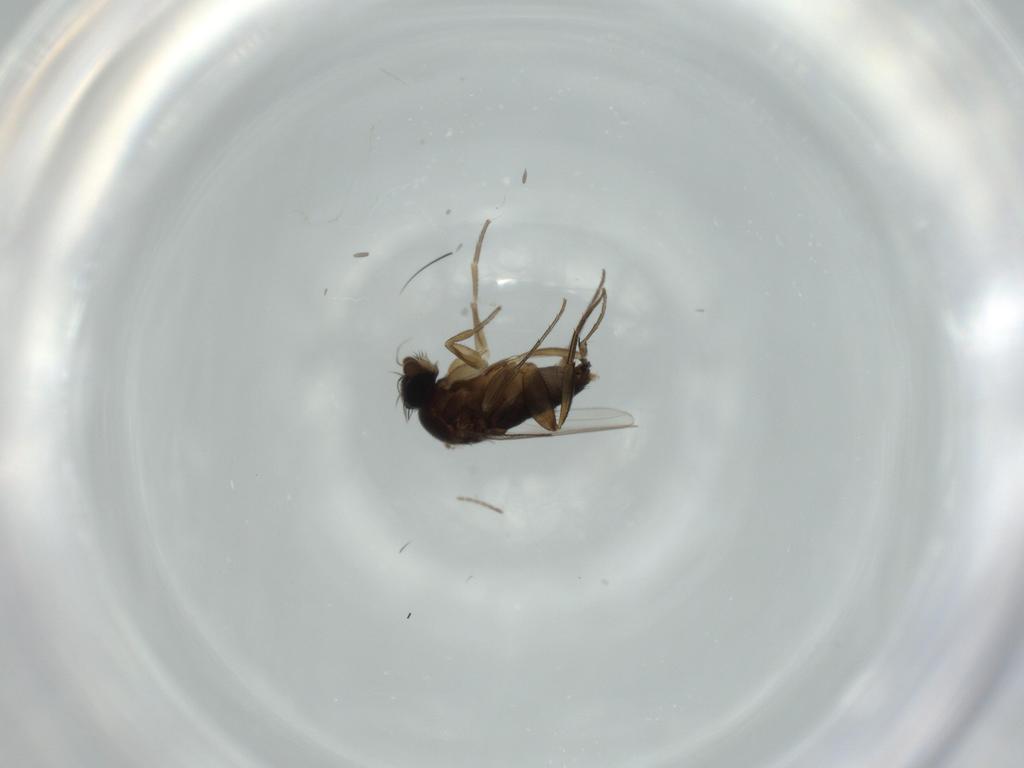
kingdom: Animalia
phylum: Arthropoda
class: Insecta
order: Diptera
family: Phoridae
